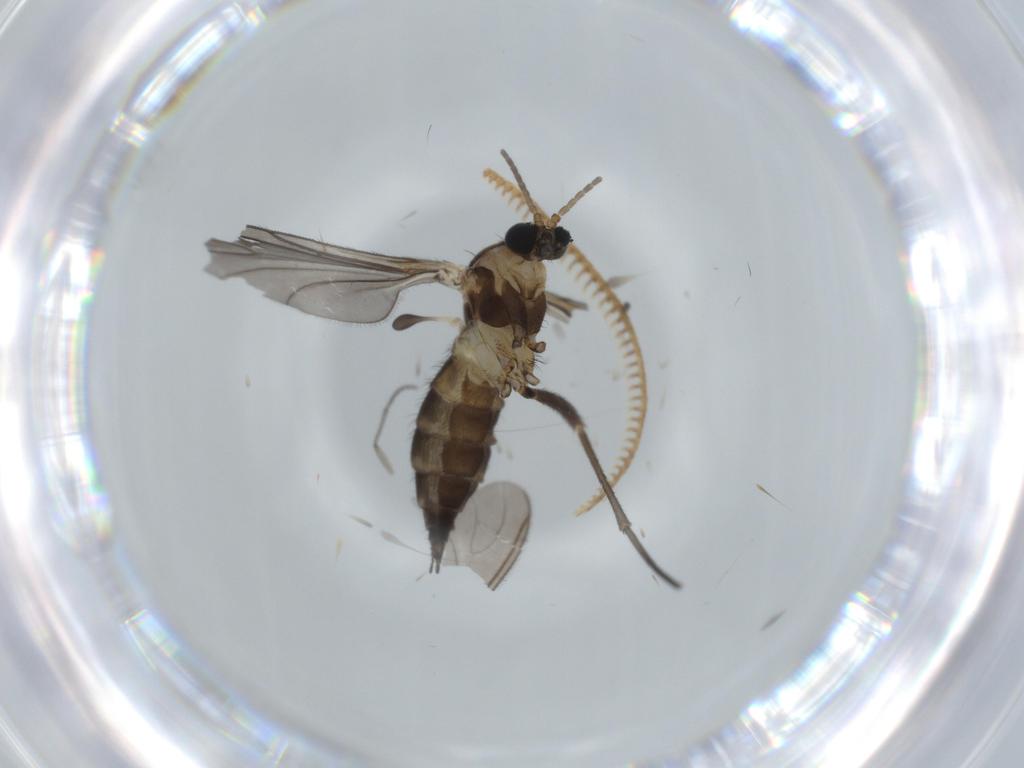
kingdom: Animalia
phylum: Arthropoda
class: Insecta
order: Diptera
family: Sciaridae
